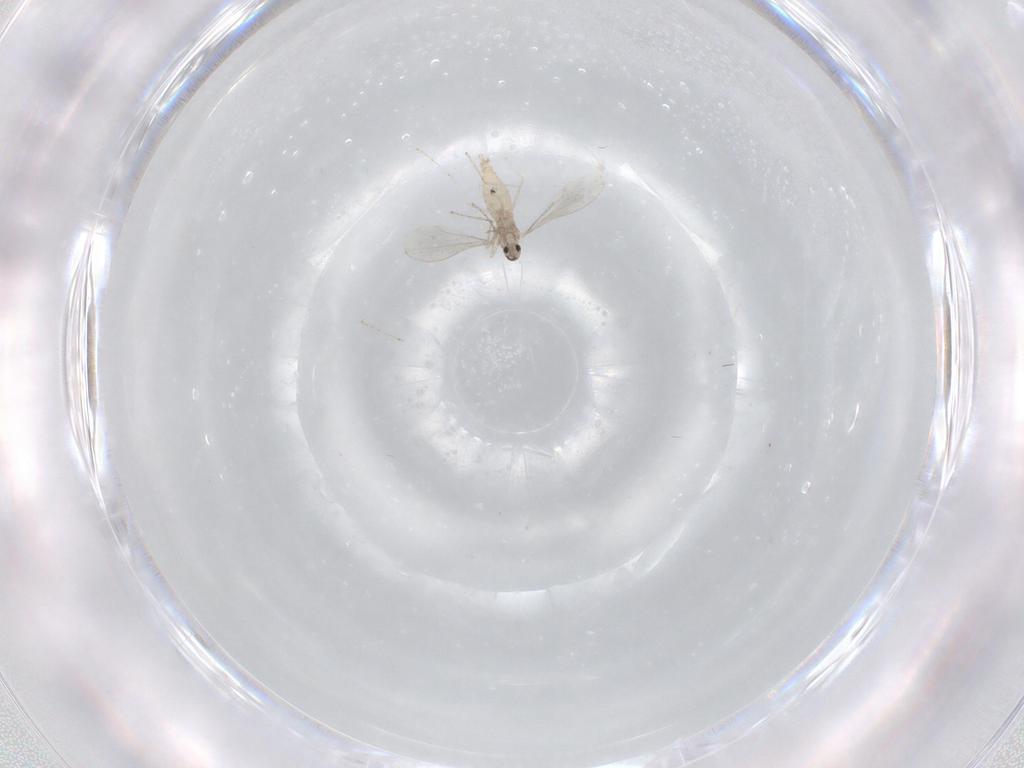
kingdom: Animalia
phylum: Arthropoda
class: Insecta
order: Diptera
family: Cecidomyiidae
